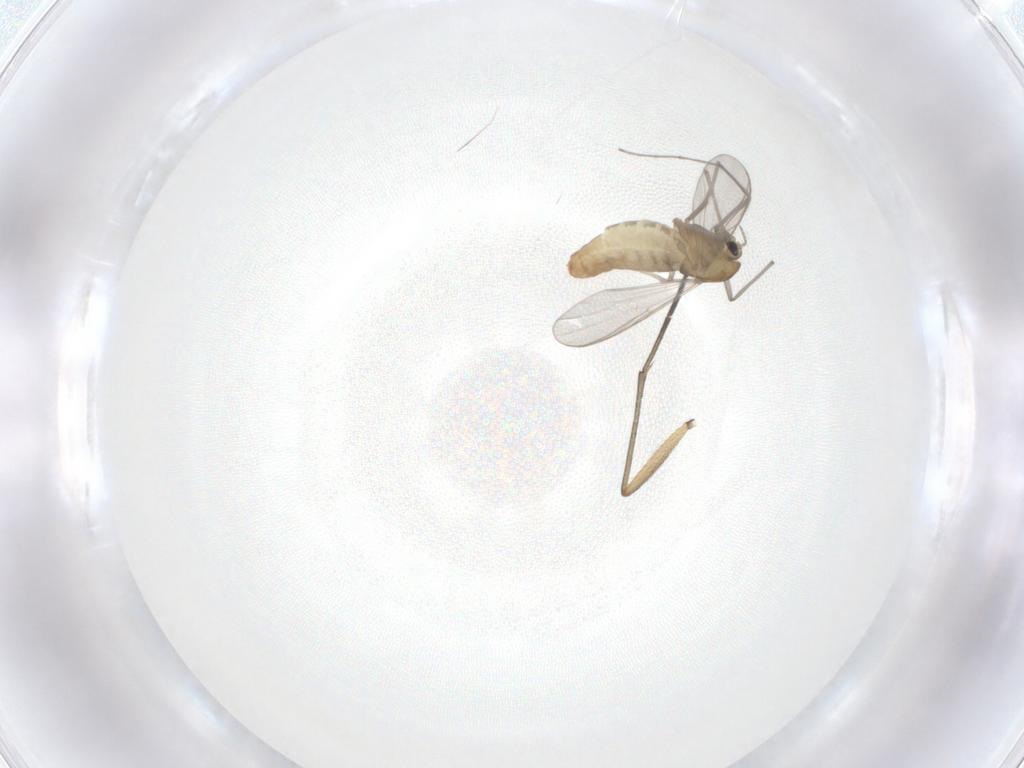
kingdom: Animalia
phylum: Arthropoda
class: Insecta
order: Diptera
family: Chironomidae
